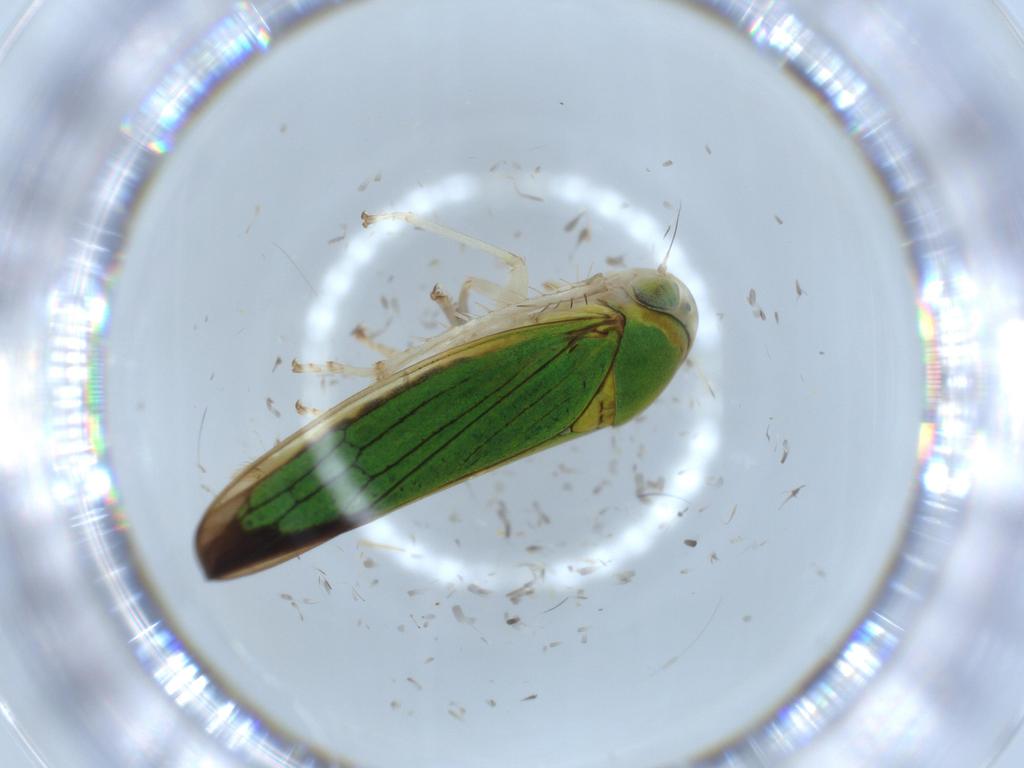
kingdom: Animalia
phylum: Arthropoda
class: Insecta
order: Hemiptera
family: Cicadellidae
